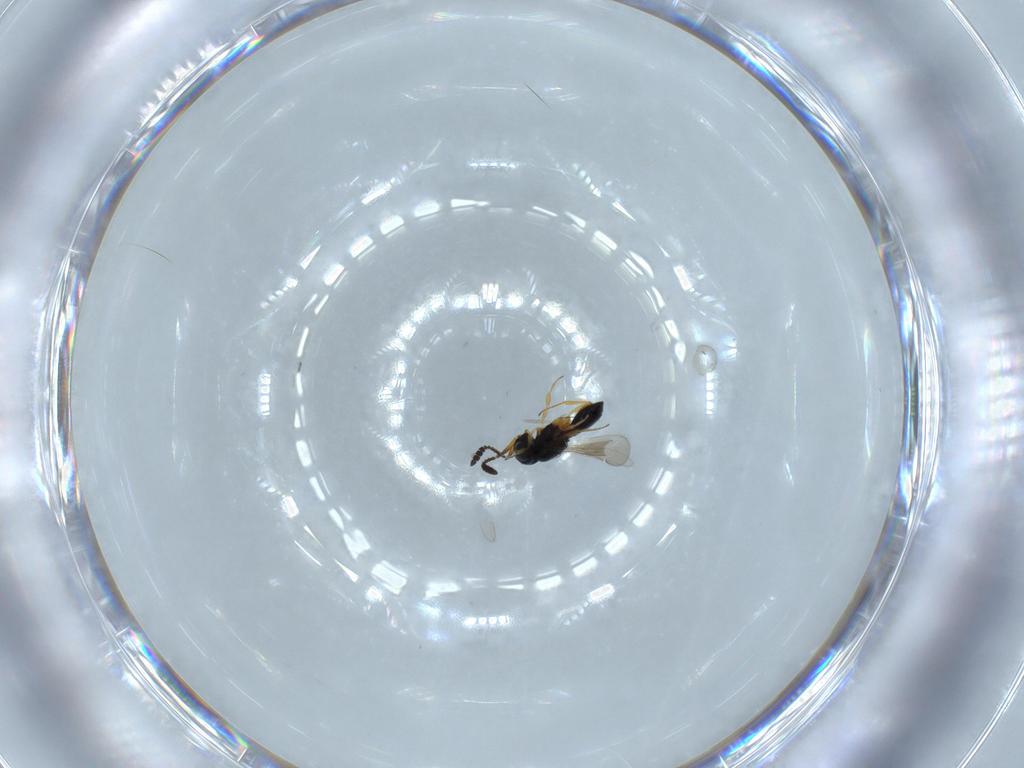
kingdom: Animalia
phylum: Arthropoda
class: Insecta
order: Hymenoptera
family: Scelionidae
